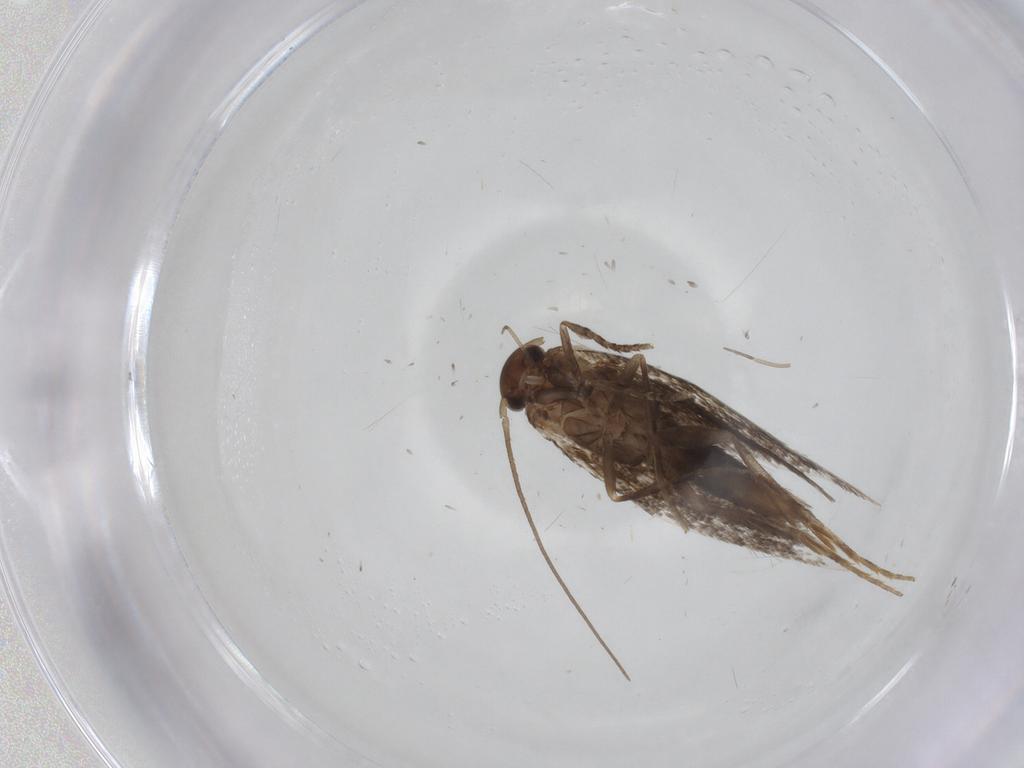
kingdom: Animalia
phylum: Arthropoda
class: Insecta
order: Lepidoptera
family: Elachistidae
